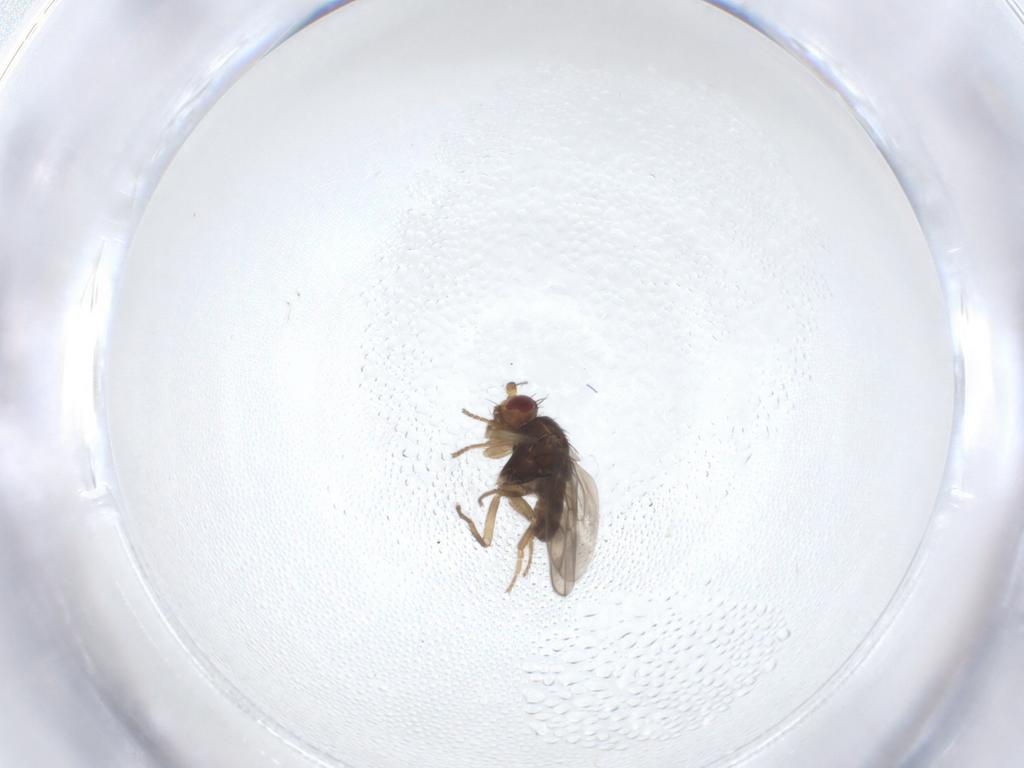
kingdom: Animalia
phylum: Arthropoda
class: Insecta
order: Diptera
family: Sphaeroceridae
